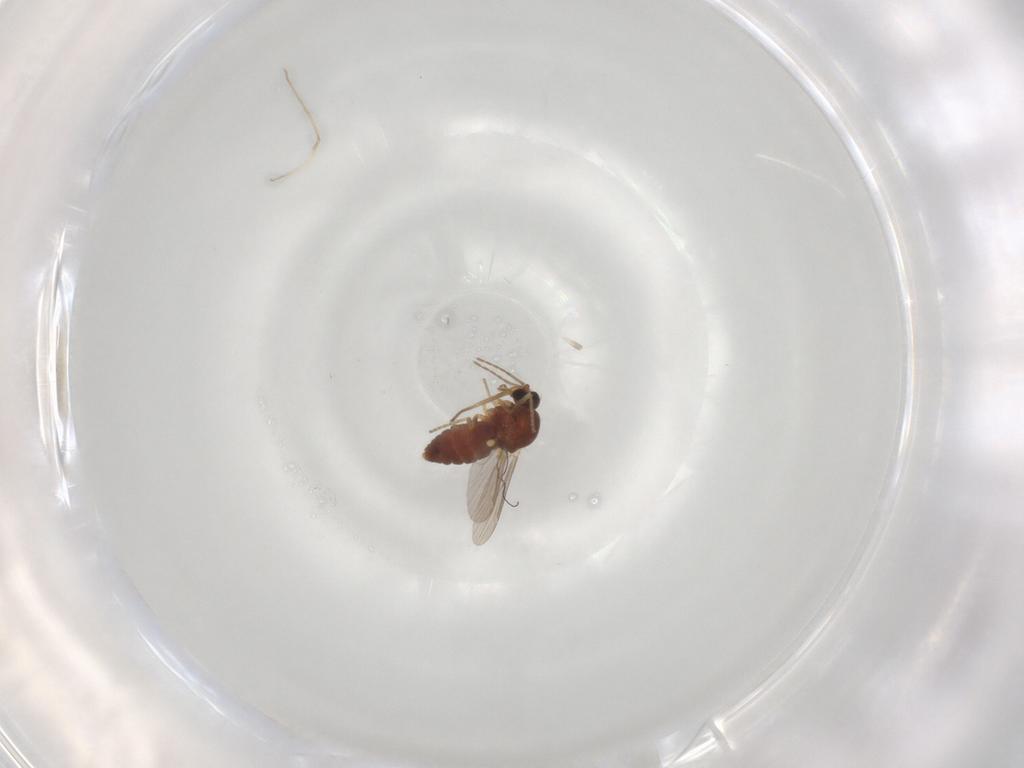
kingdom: Animalia
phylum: Arthropoda
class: Insecta
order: Diptera
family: Ceratopogonidae
